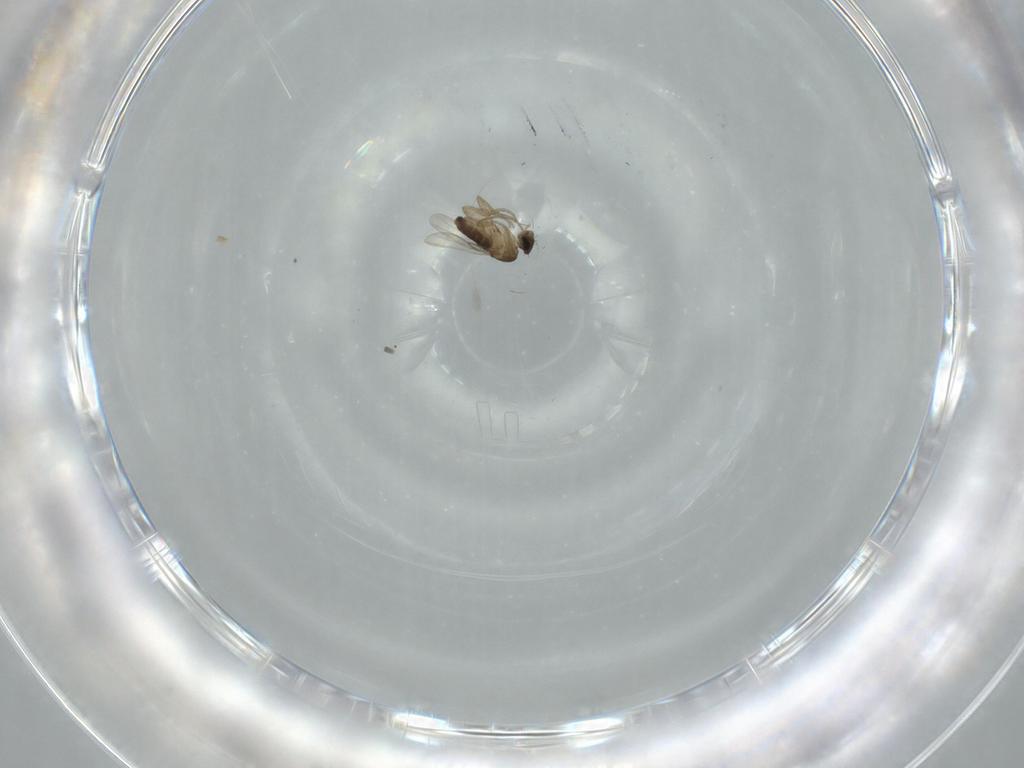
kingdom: Animalia
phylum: Arthropoda
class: Insecta
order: Diptera
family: Phoridae
